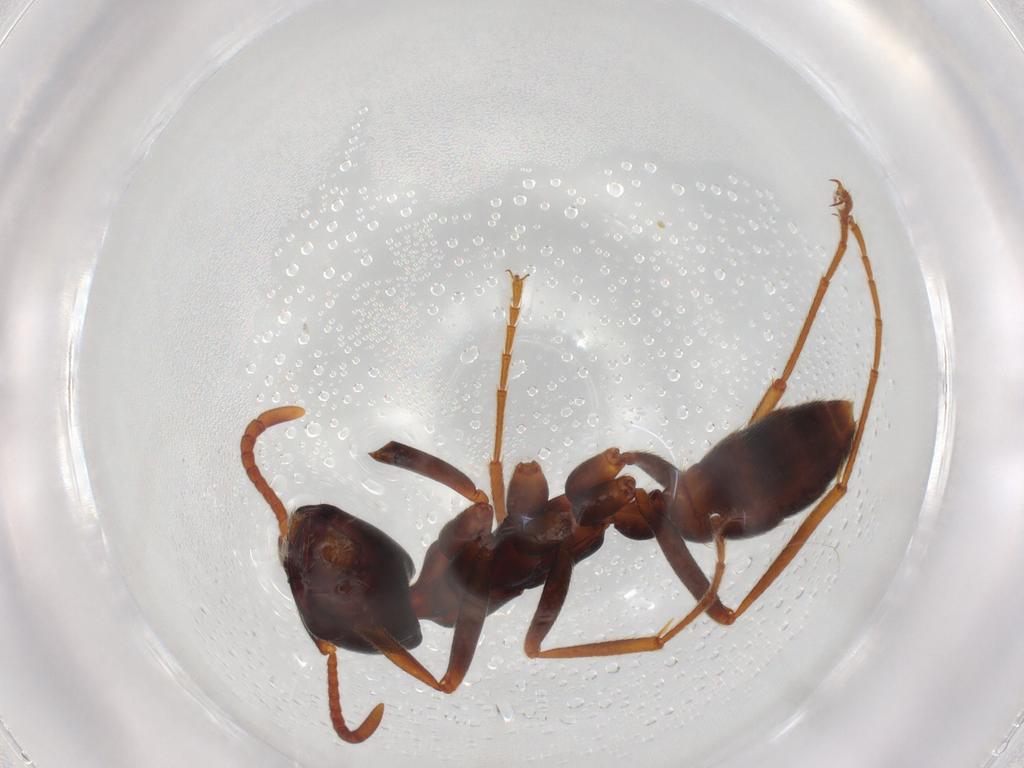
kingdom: Animalia
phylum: Arthropoda
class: Insecta
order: Hymenoptera
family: Formicidae
